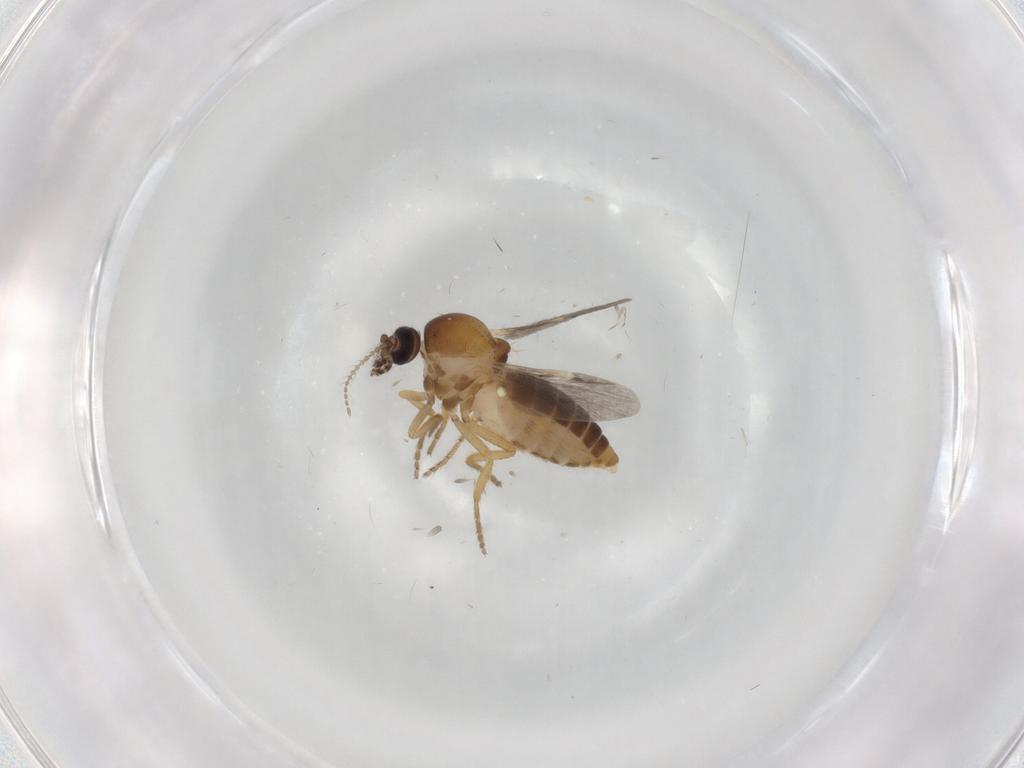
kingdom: Animalia
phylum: Arthropoda
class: Insecta
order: Diptera
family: Ceratopogonidae
